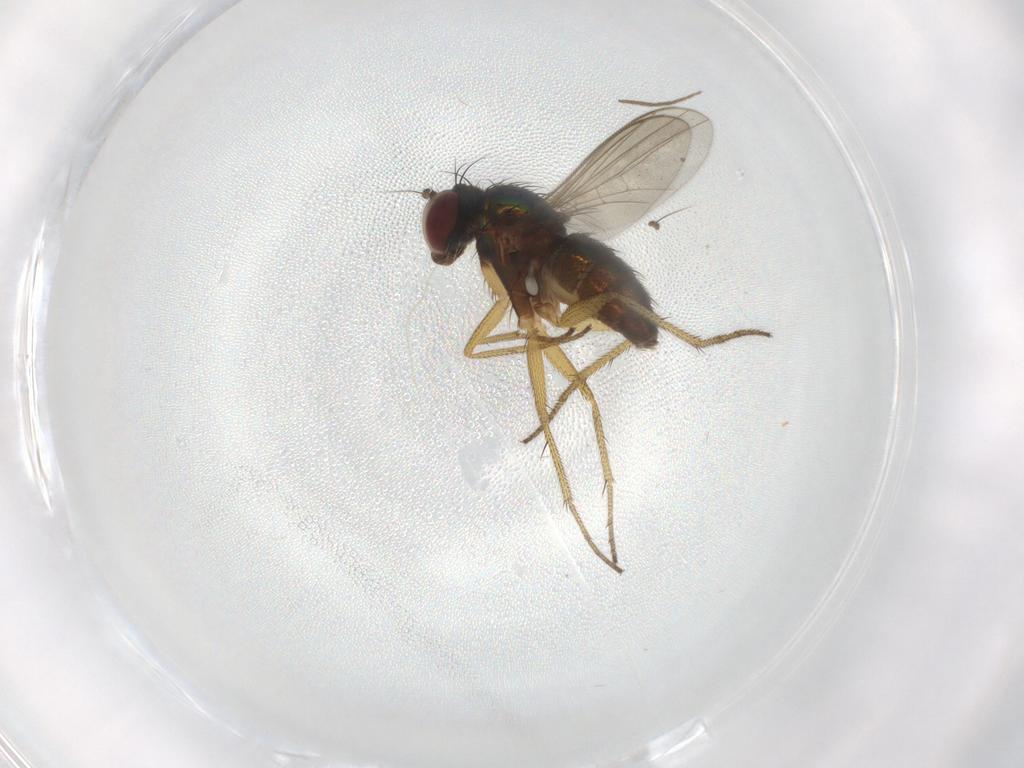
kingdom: Animalia
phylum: Arthropoda
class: Insecta
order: Diptera
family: Dolichopodidae
